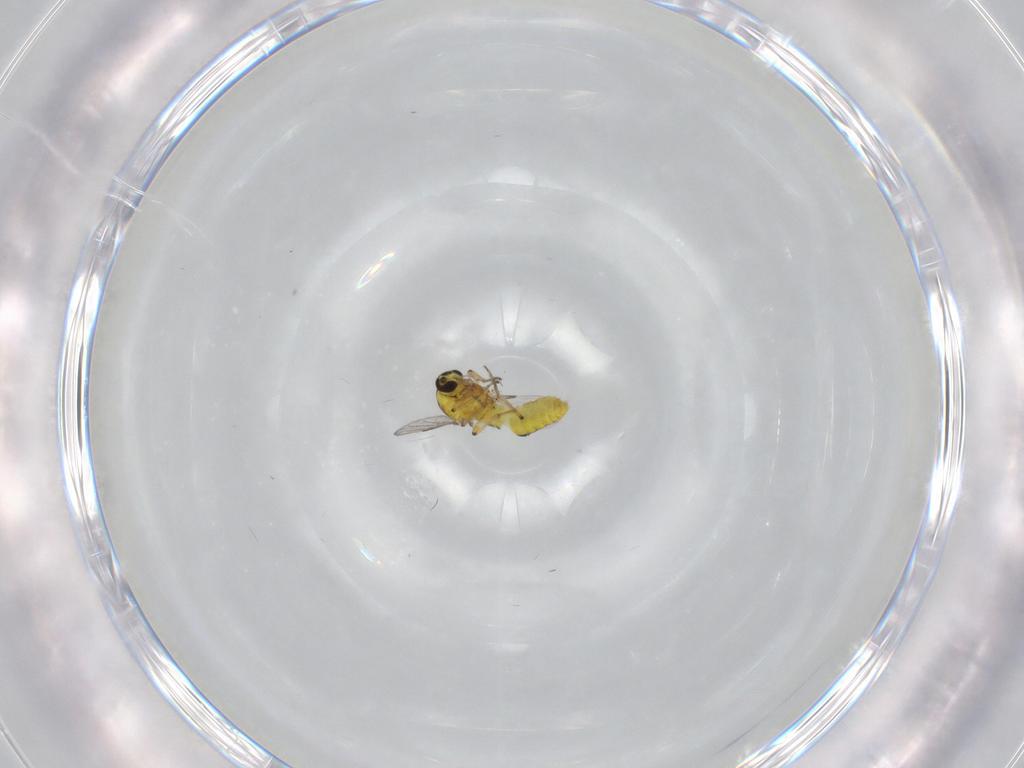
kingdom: Animalia
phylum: Arthropoda
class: Insecta
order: Diptera
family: Ceratopogonidae
